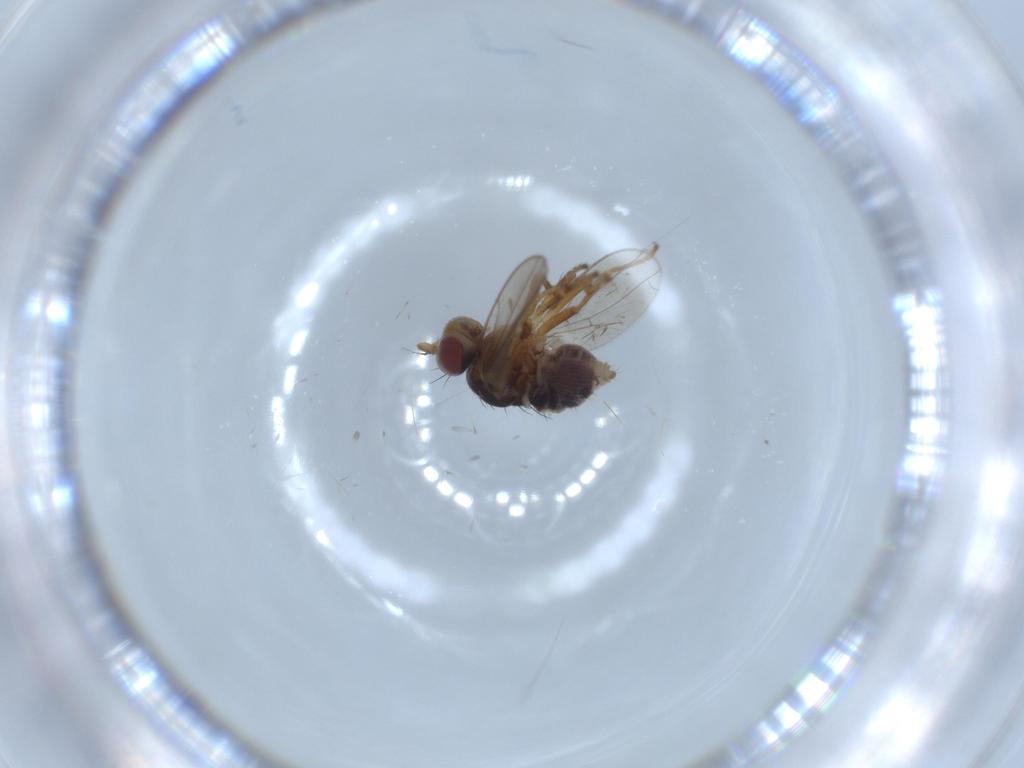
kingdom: Animalia
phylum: Arthropoda
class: Insecta
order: Diptera
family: Ephydridae
